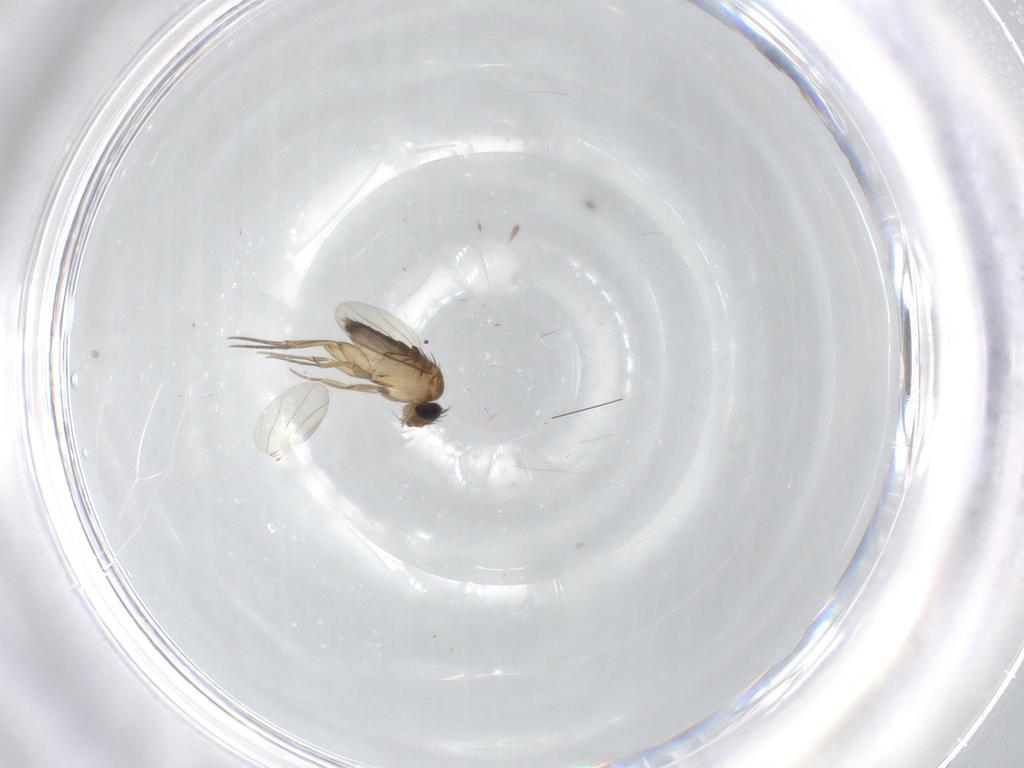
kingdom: Animalia
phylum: Arthropoda
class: Insecta
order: Diptera
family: Phoridae
